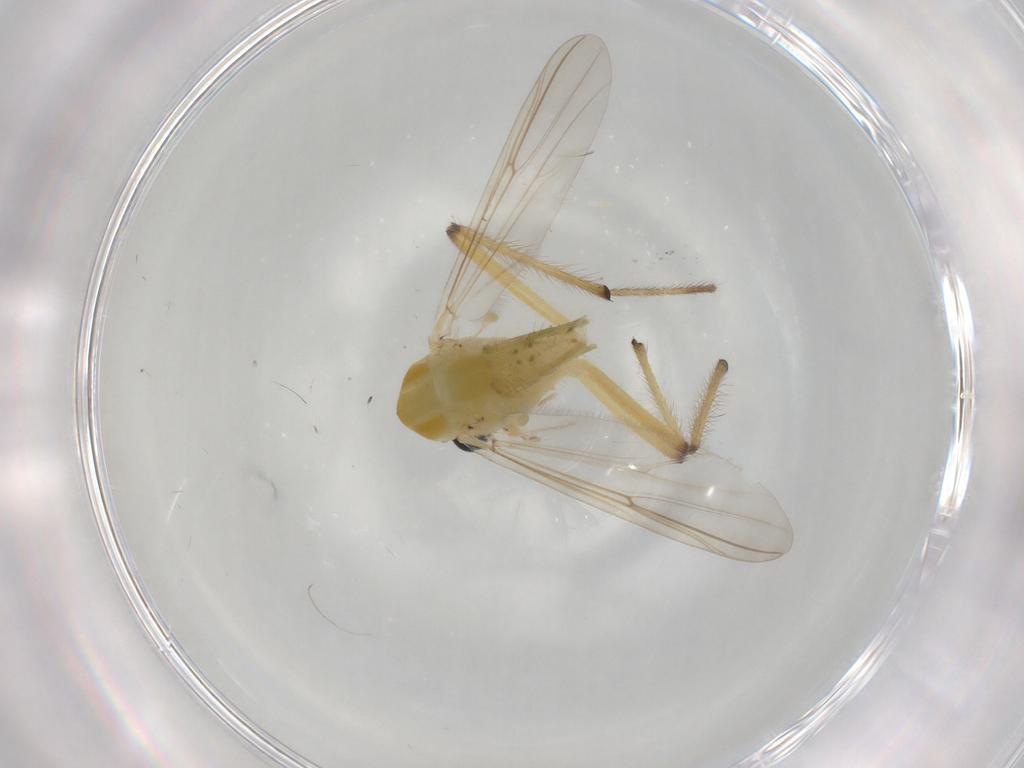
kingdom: Animalia
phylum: Arthropoda
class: Insecta
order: Diptera
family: Chironomidae
